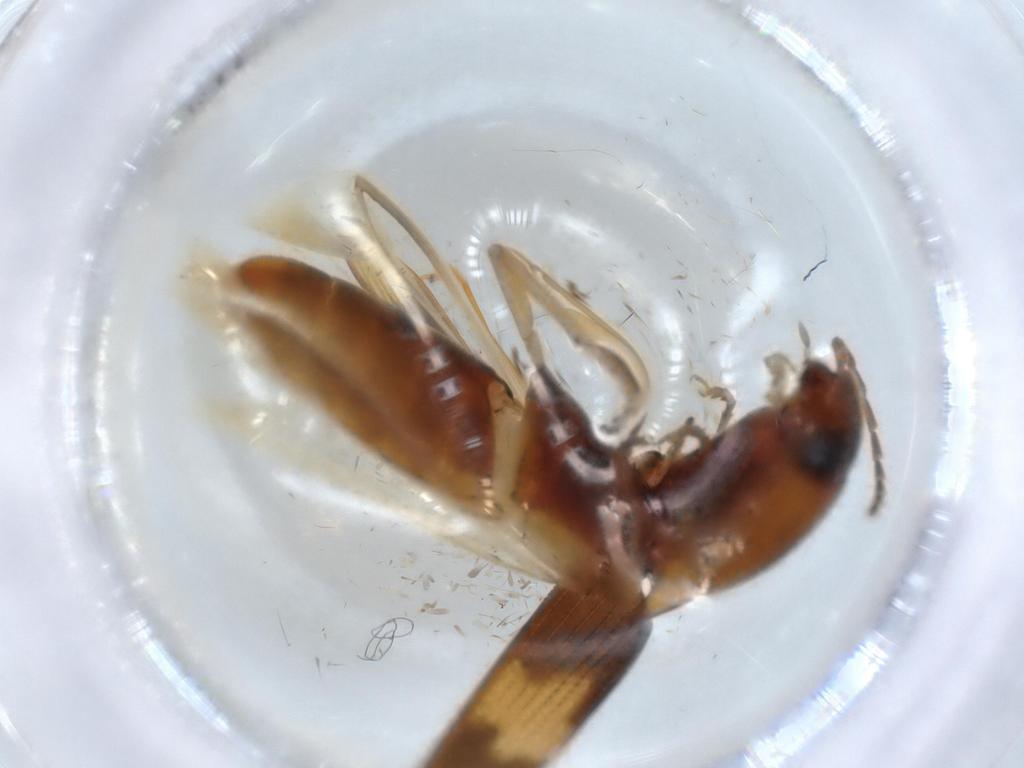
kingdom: Animalia
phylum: Arthropoda
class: Insecta
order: Coleoptera
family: Elateridae
